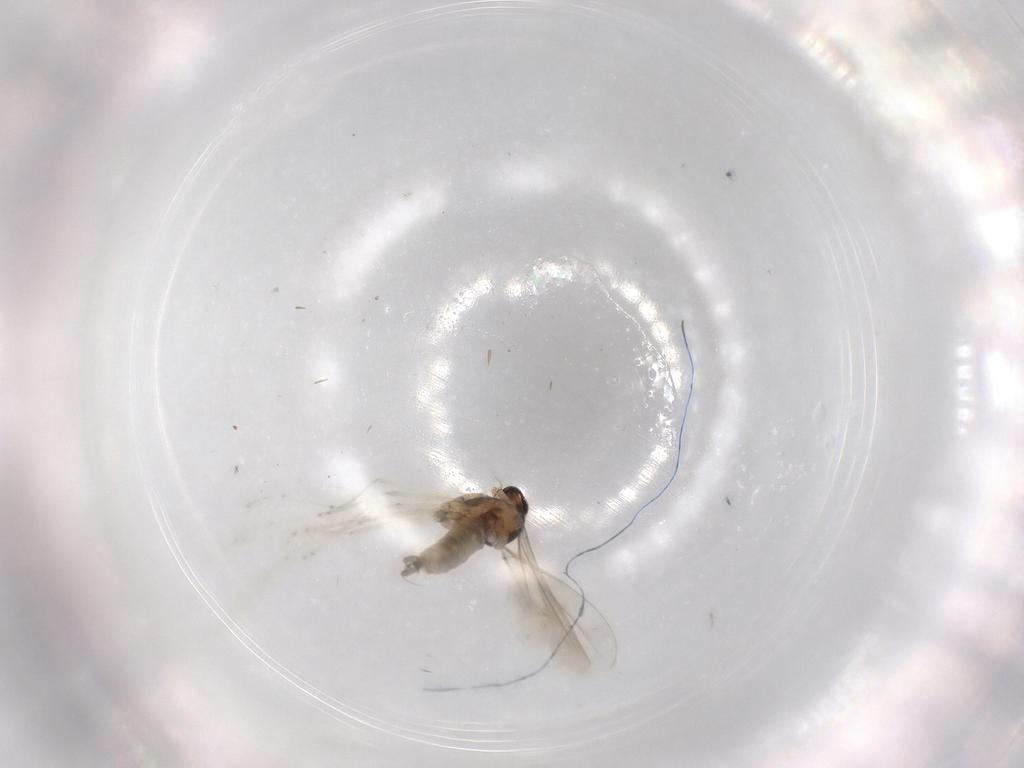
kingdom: Animalia
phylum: Arthropoda
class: Insecta
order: Diptera
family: Sciaridae
